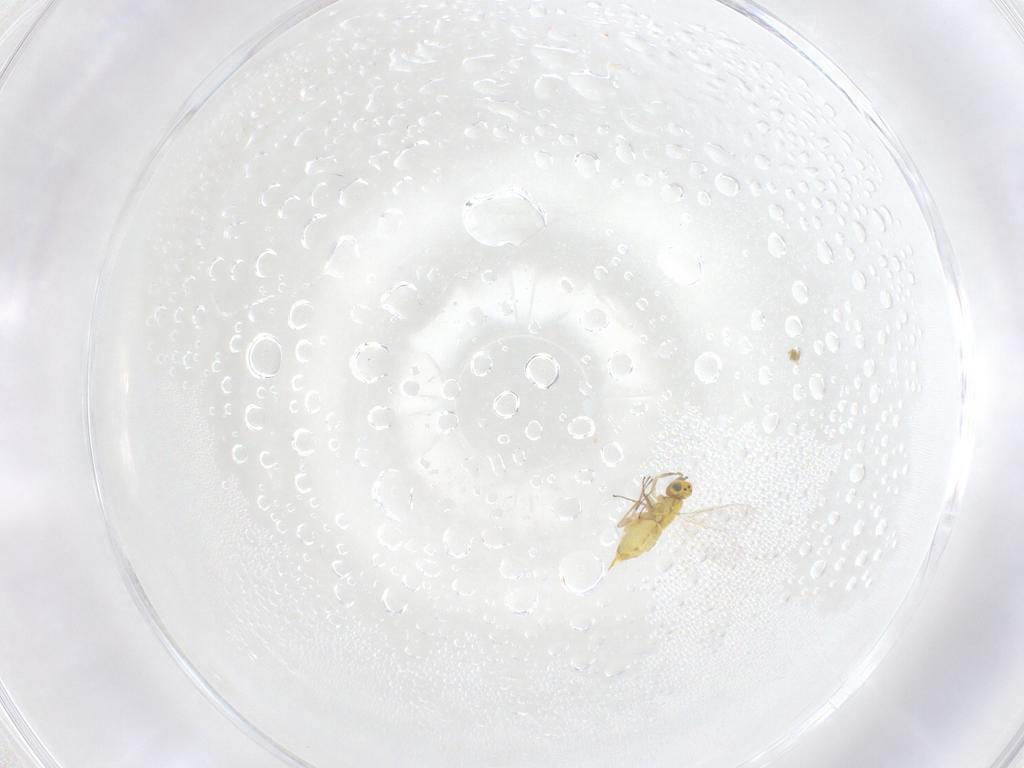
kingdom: Animalia
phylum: Arthropoda
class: Insecta
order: Hymenoptera
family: Aphelinidae
